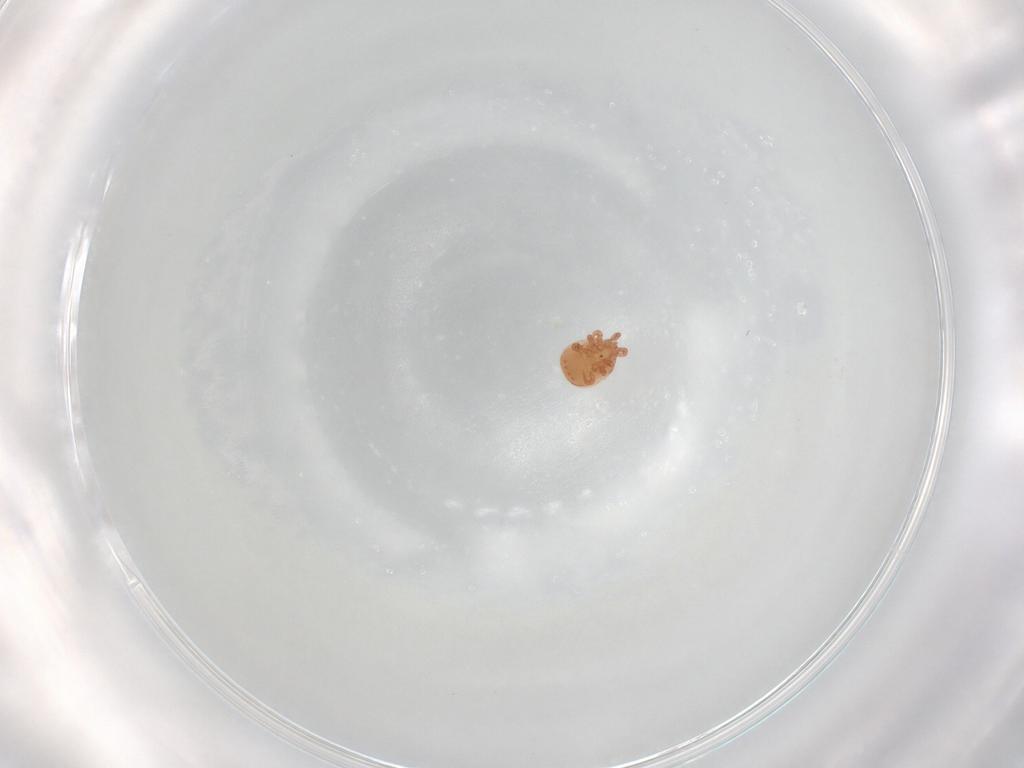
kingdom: Animalia
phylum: Arthropoda
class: Arachnida
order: Mesostigmata
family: Zerconidae
